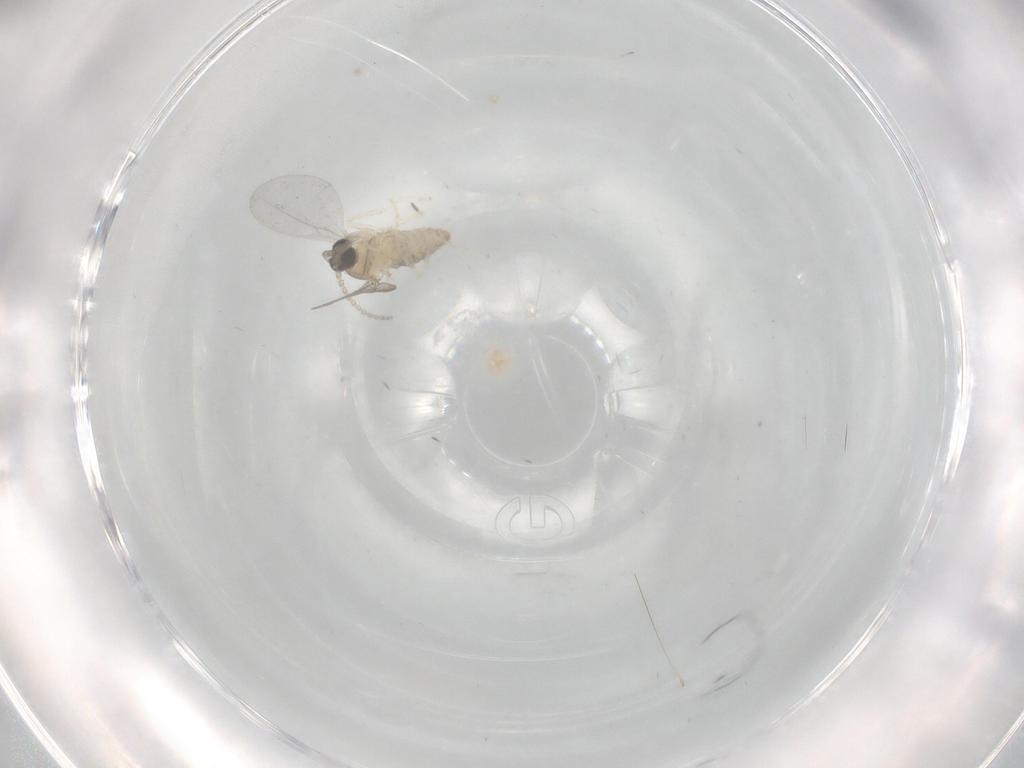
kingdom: Animalia
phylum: Arthropoda
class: Insecta
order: Diptera
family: Cecidomyiidae
